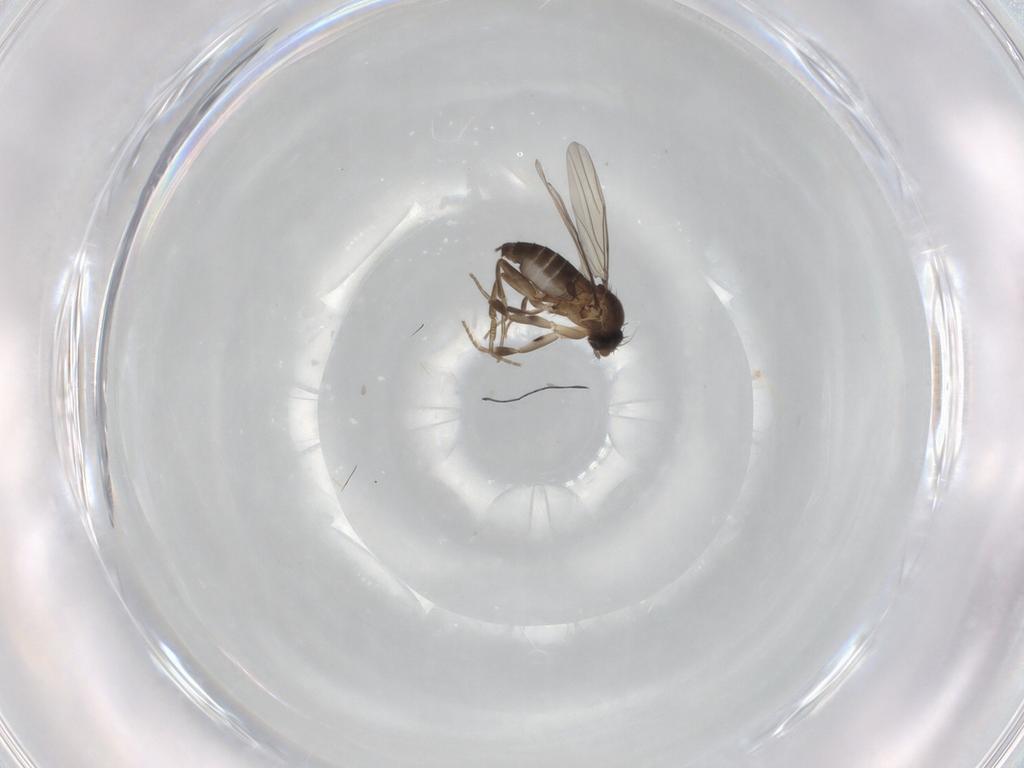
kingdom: Animalia
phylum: Arthropoda
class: Insecta
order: Diptera
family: Phoridae
